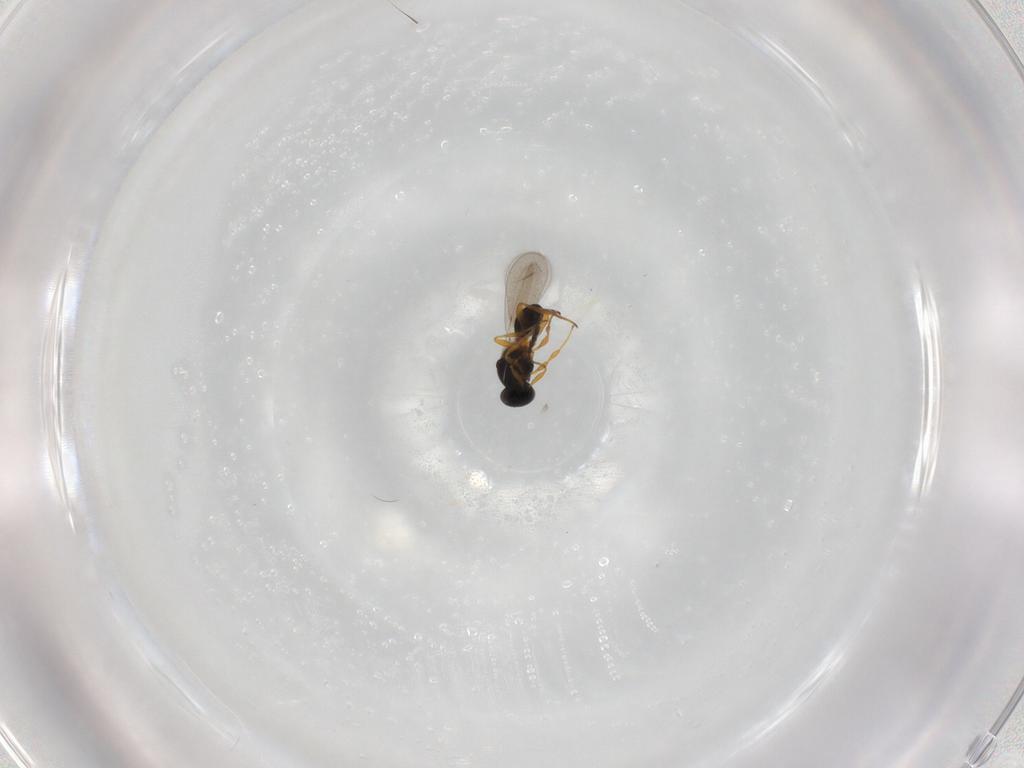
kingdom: Animalia
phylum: Arthropoda
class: Insecta
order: Hymenoptera
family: Platygastridae
